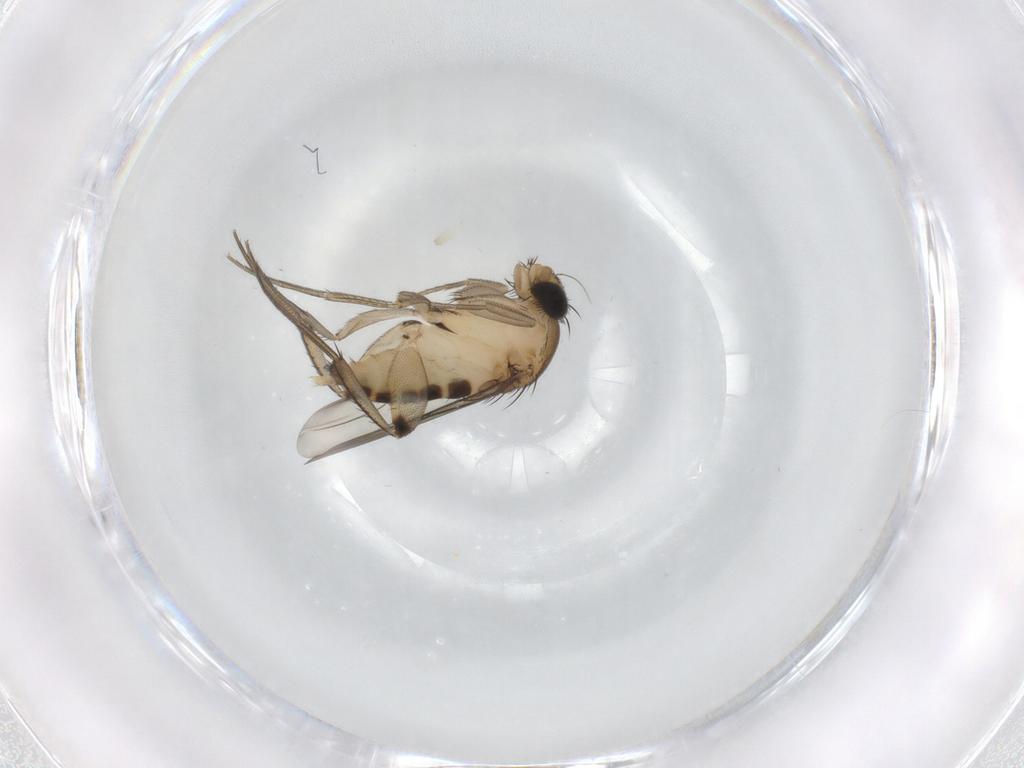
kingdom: Animalia
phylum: Arthropoda
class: Insecta
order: Diptera
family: Phoridae
